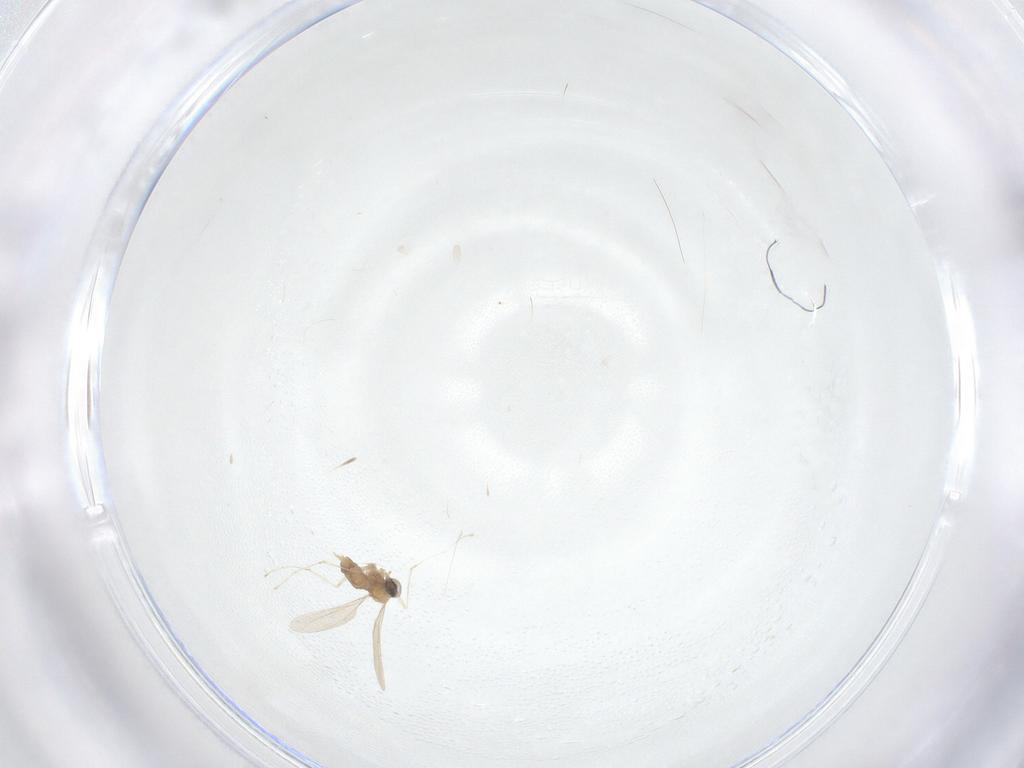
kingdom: Animalia
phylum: Arthropoda
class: Insecta
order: Diptera
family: Cecidomyiidae
